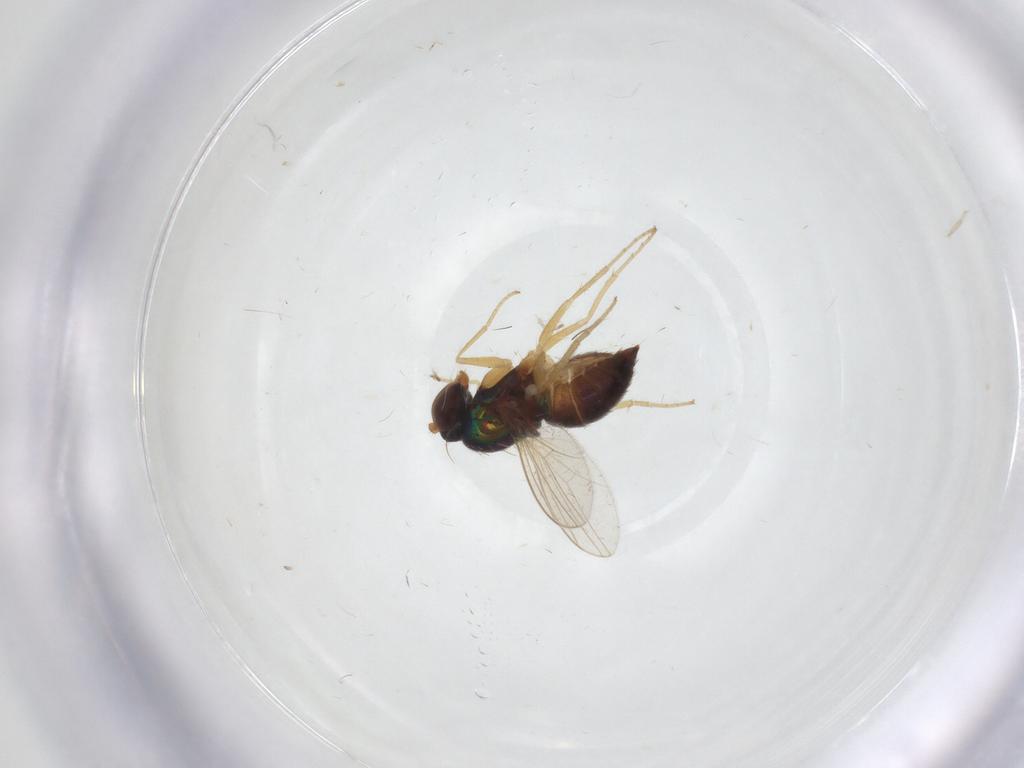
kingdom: Animalia
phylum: Arthropoda
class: Insecta
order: Diptera
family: Dolichopodidae
